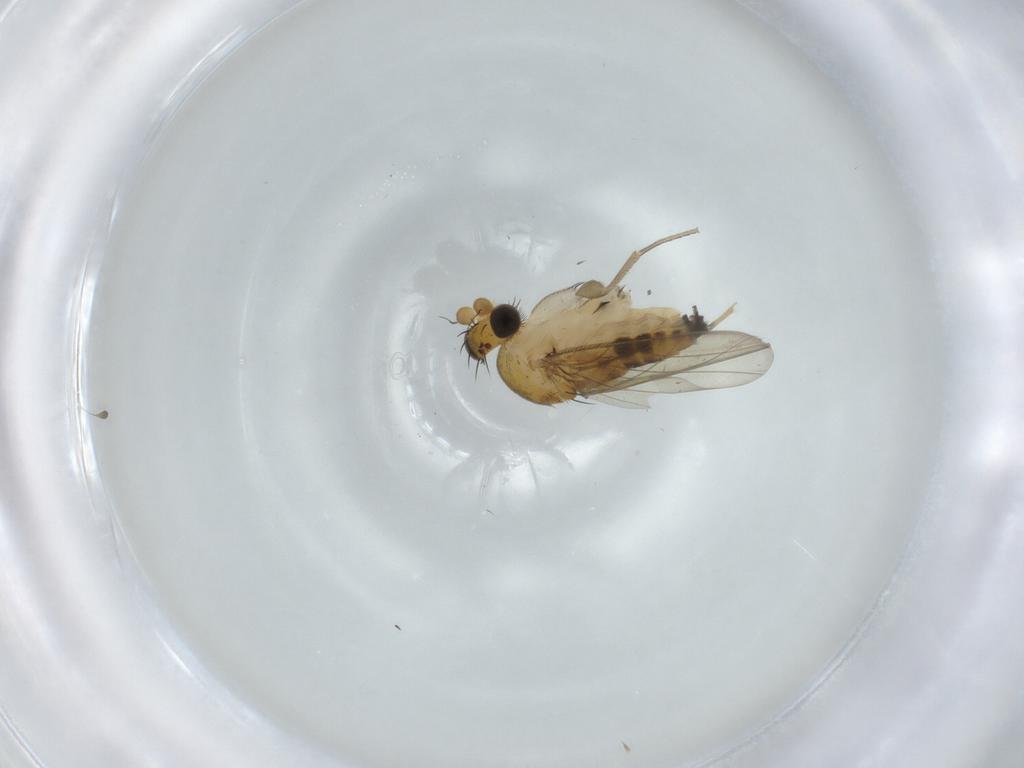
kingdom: Animalia
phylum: Arthropoda
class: Insecta
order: Diptera
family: Phoridae
